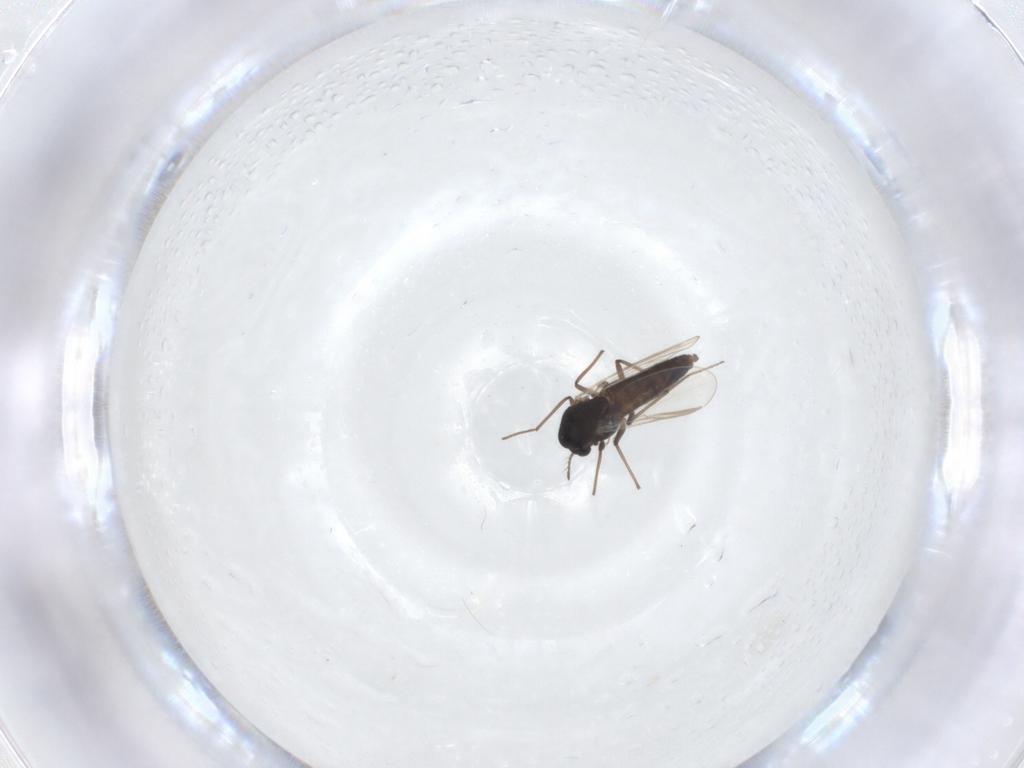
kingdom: Animalia
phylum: Arthropoda
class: Insecta
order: Diptera
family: Chironomidae
